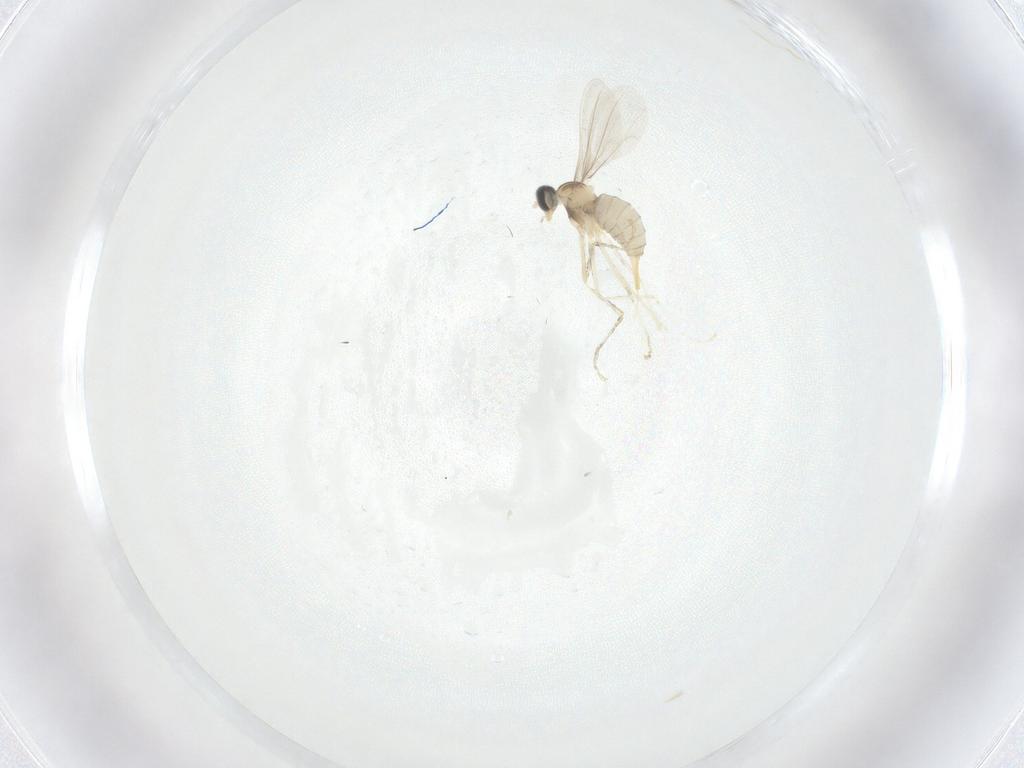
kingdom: Animalia
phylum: Arthropoda
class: Insecta
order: Diptera
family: Cecidomyiidae
